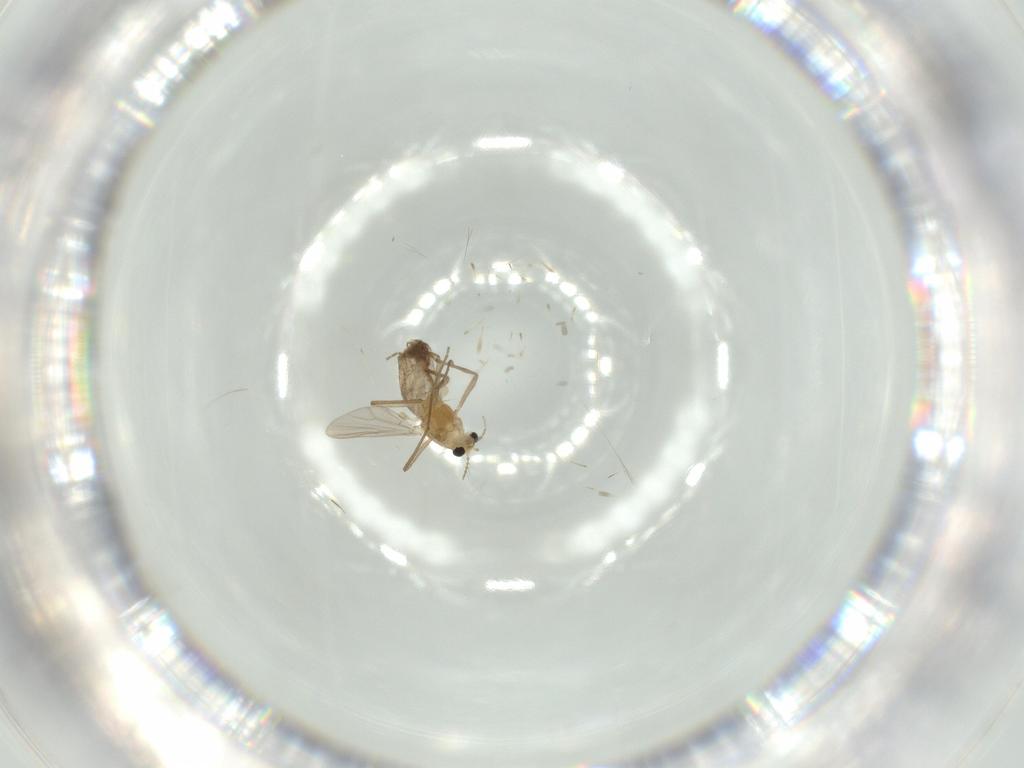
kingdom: Animalia
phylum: Arthropoda
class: Insecta
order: Diptera
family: Chironomidae
